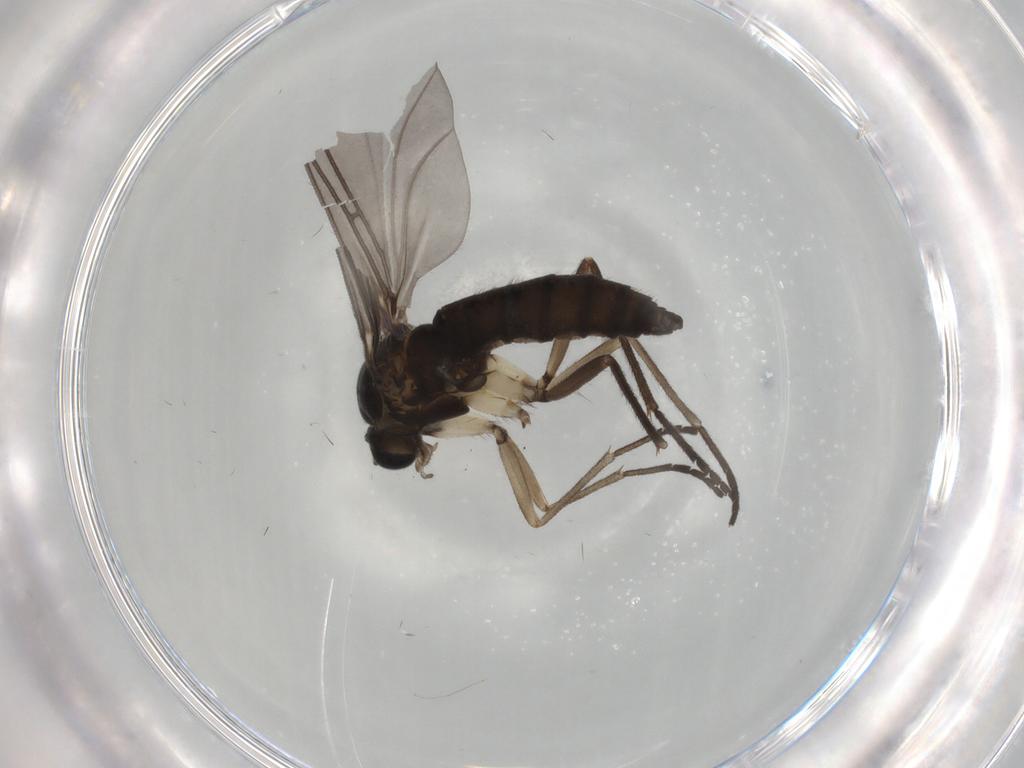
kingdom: Animalia
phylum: Arthropoda
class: Insecta
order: Diptera
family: Sciaridae
